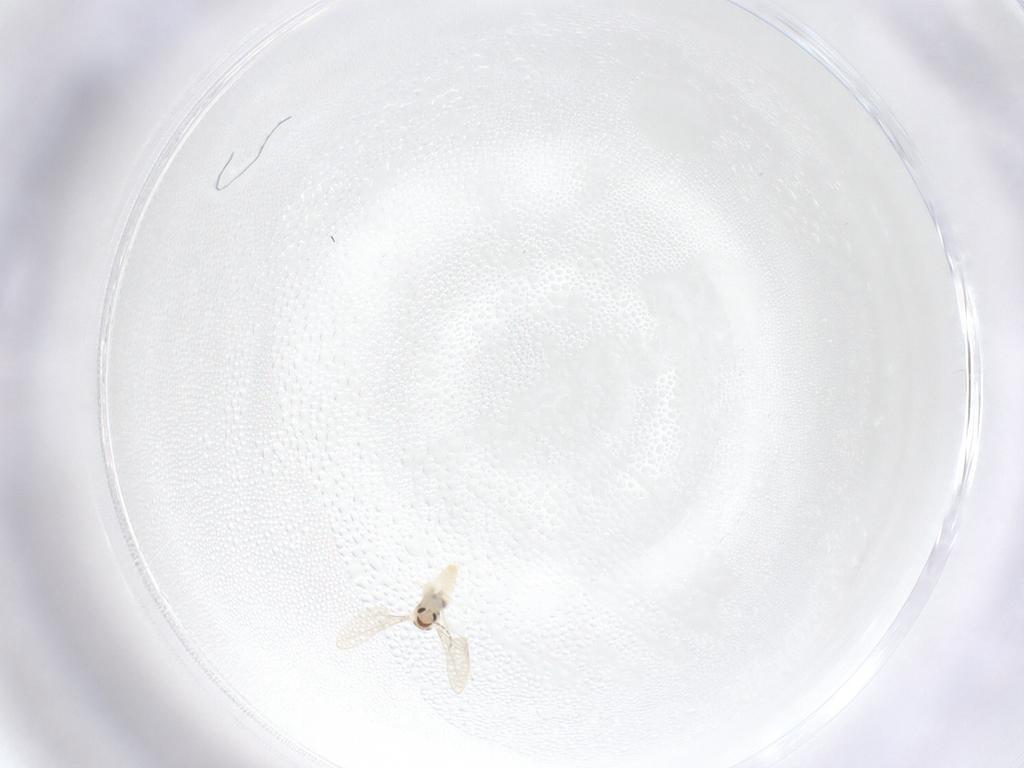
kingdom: Animalia
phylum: Arthropoda
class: Insecta
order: Diptera
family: Cecidomyiidae
